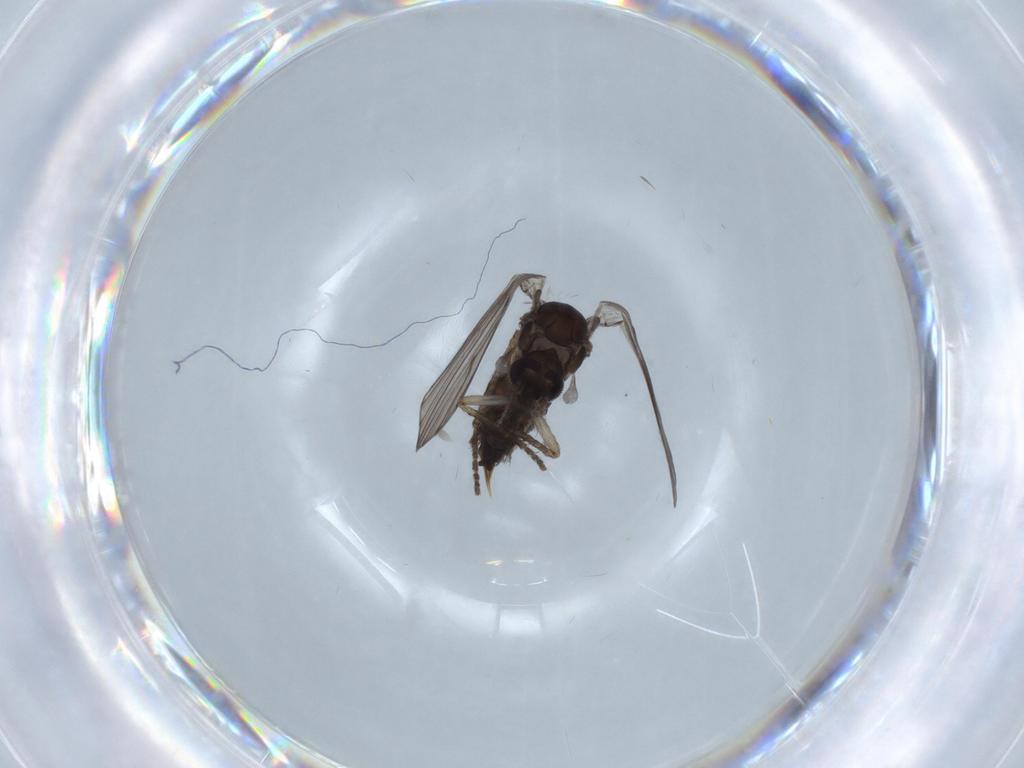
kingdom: Animalia
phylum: Arthropoda
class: Insecta
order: Diptera
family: Psychodidae
